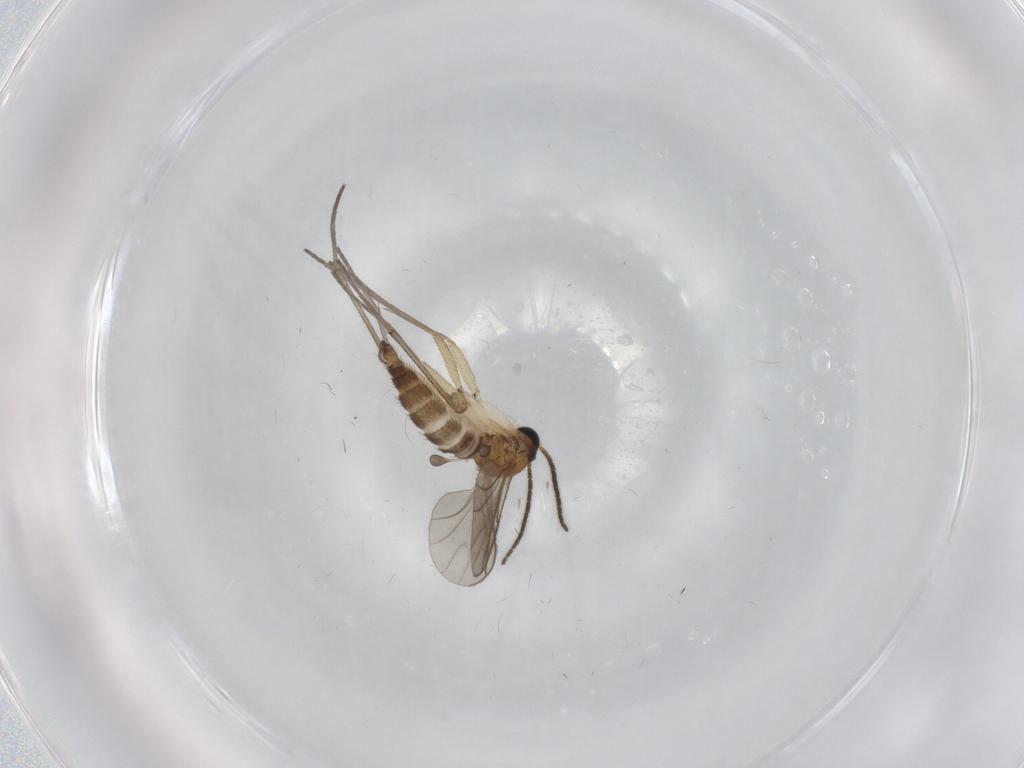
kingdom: Animalia
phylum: Arthropoda
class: Insecta
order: Diptera
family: Sciaridae
